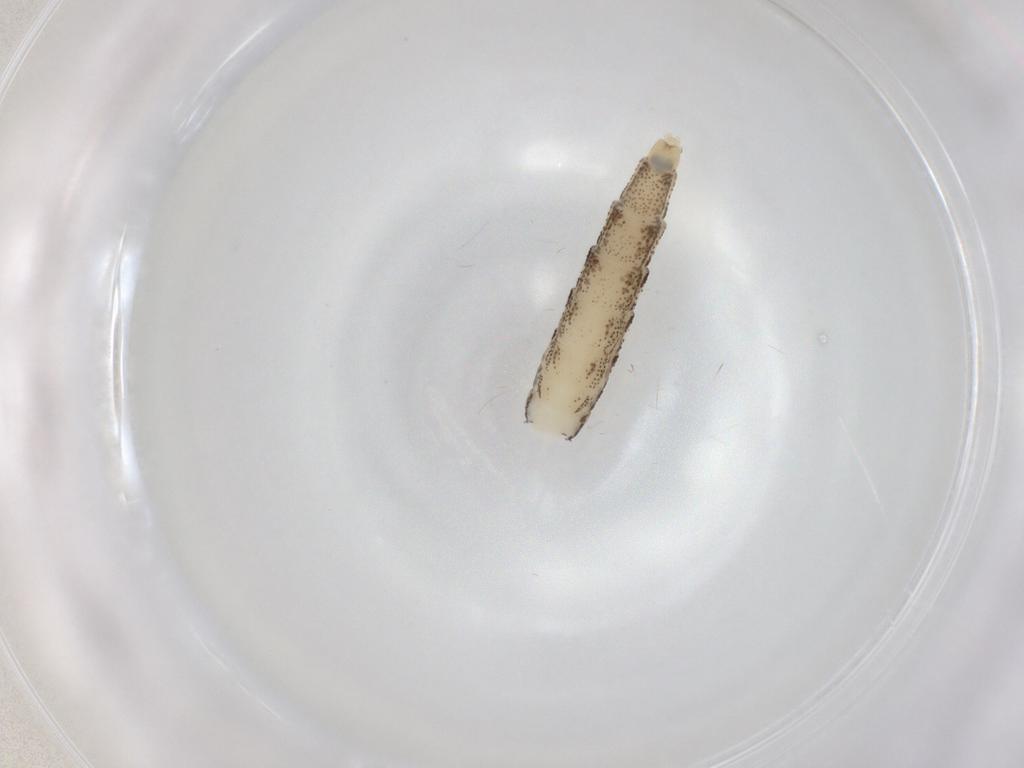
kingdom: Animalia
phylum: Arthropoda
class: Insecta
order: Diptera
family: Chaoboridae
